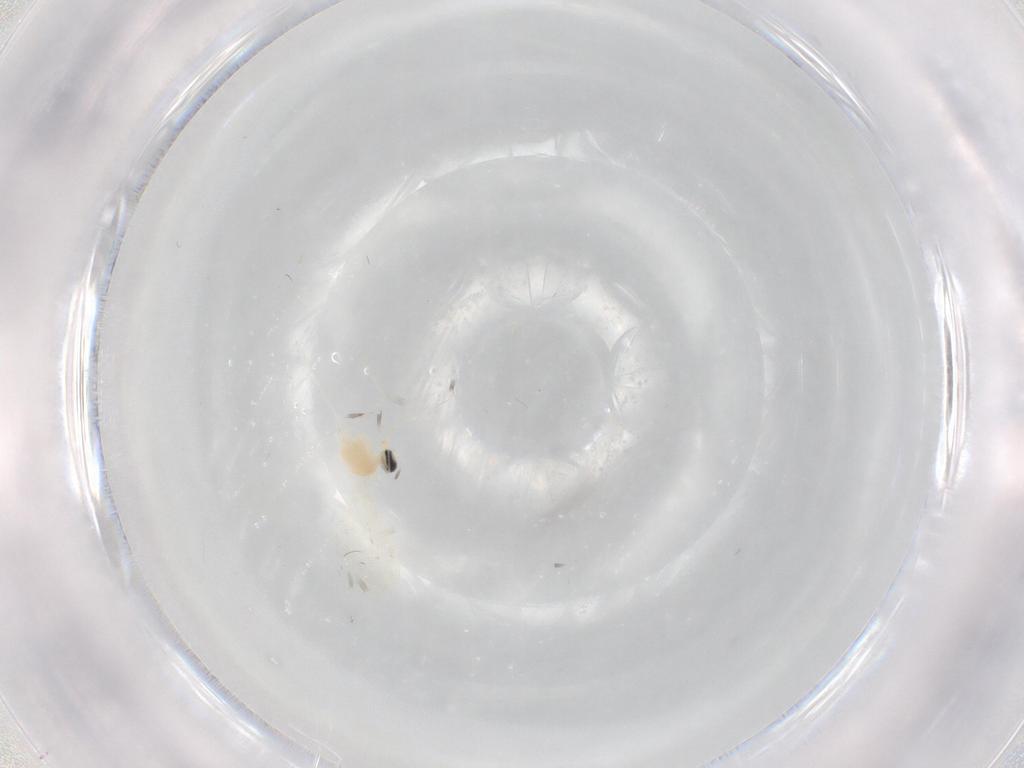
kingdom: Animalia
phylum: Arthropoda
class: Insecta
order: Diptera
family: Cecidomyiidae
